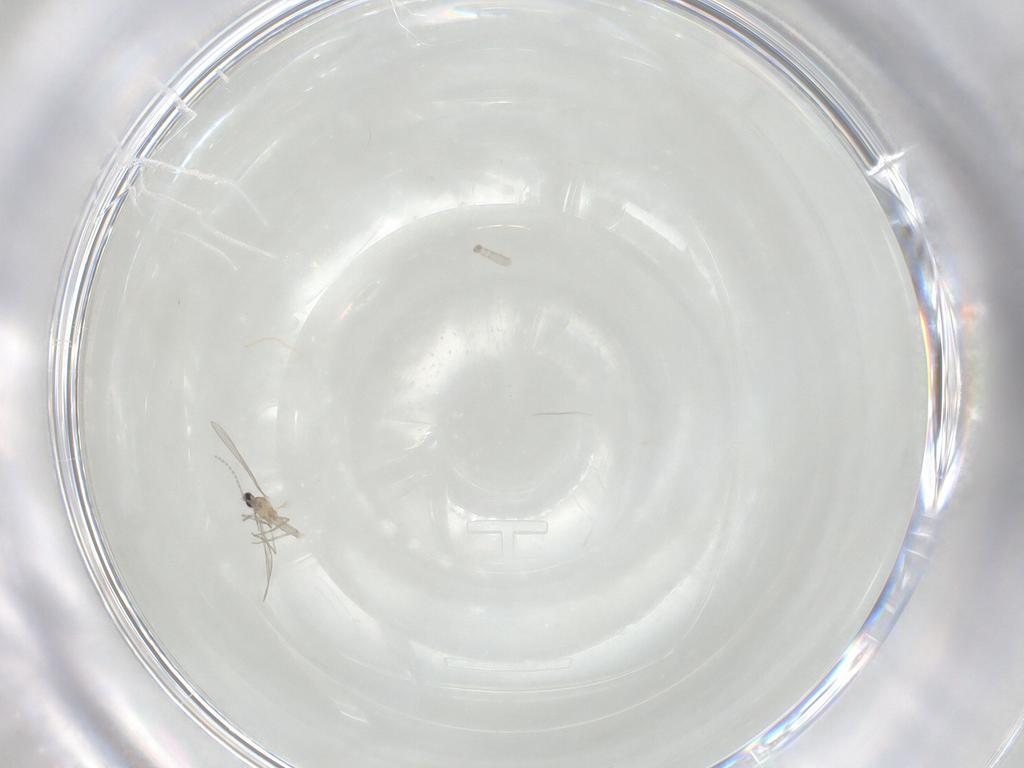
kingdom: Animalia
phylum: Arthropoda
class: Insecta
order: Diptera
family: Cecidomyiidae
